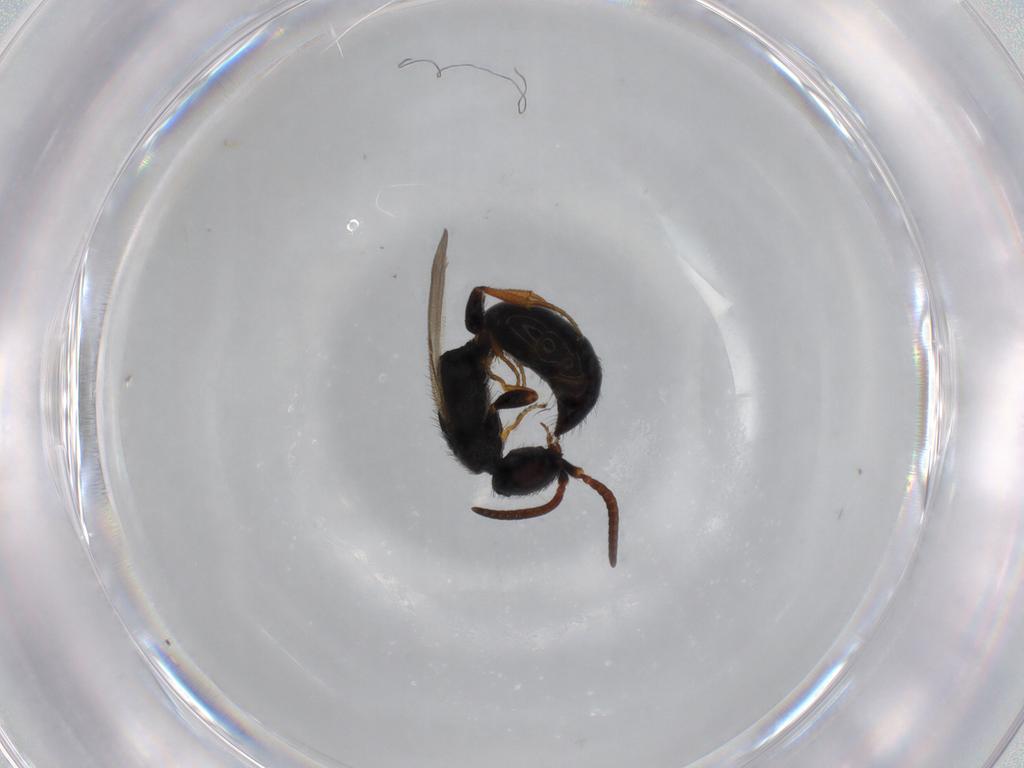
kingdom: Animalia
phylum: Arthropoda
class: Insecta
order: Hymenoptera
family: Bethylidae
